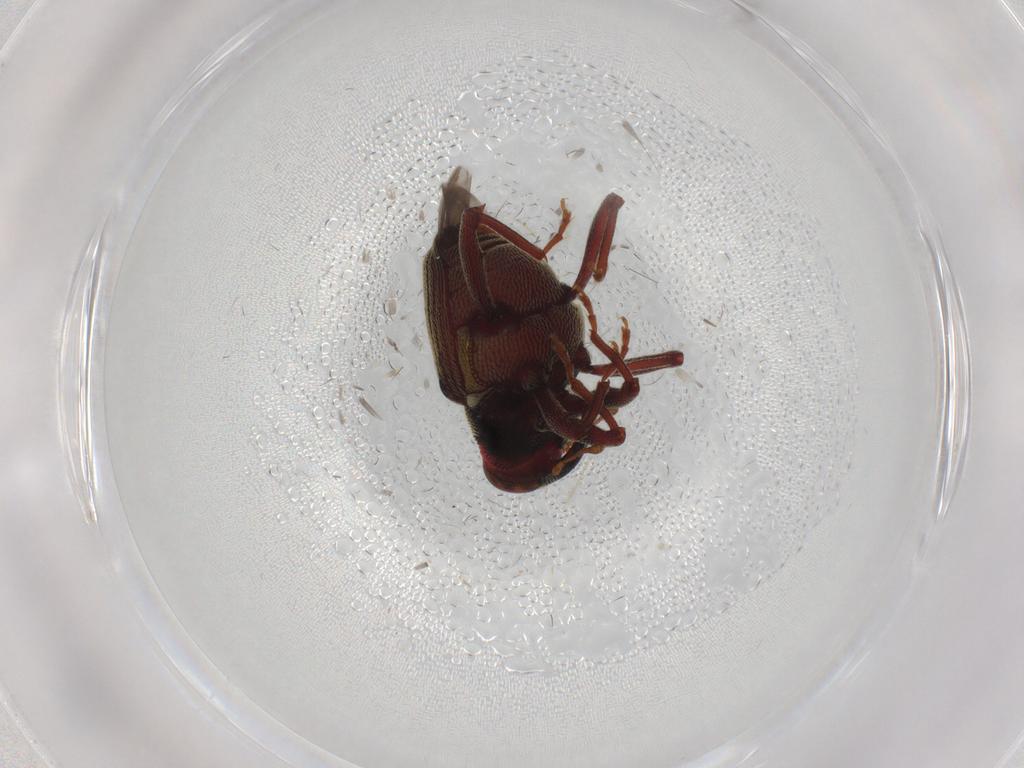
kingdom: Animalia
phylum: Arthropoda
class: Insecta
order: Coleoptera
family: Curculionidae
